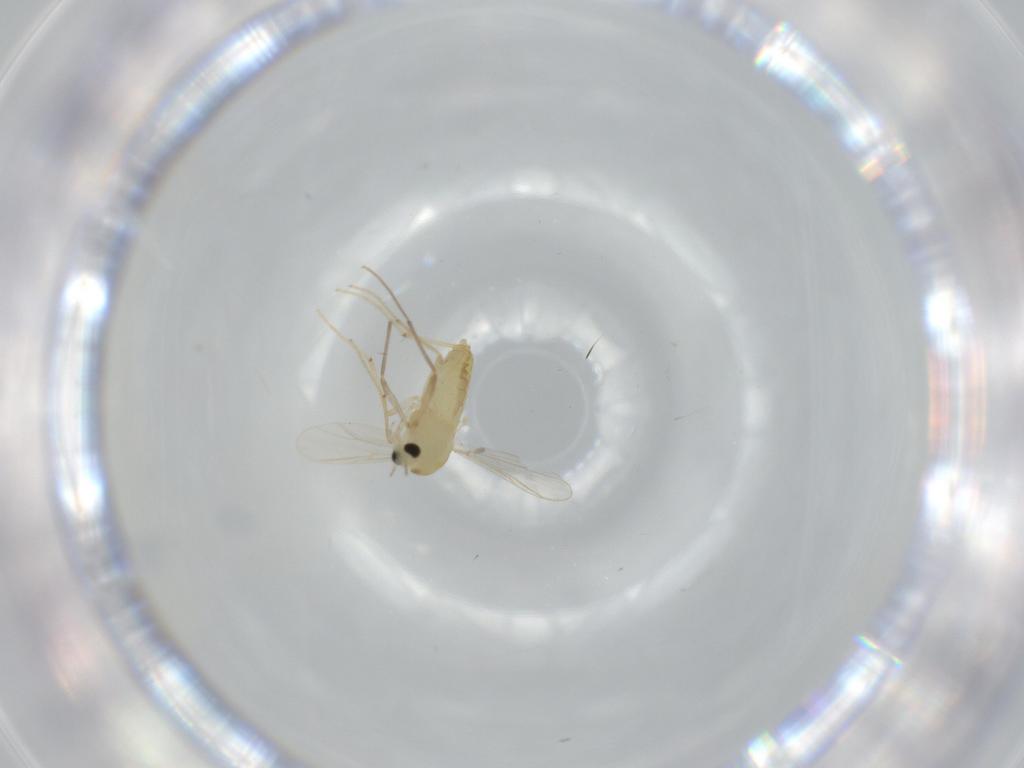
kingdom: Animalia
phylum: Arthropoda
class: Insecta
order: Diptera
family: Chironomidae
